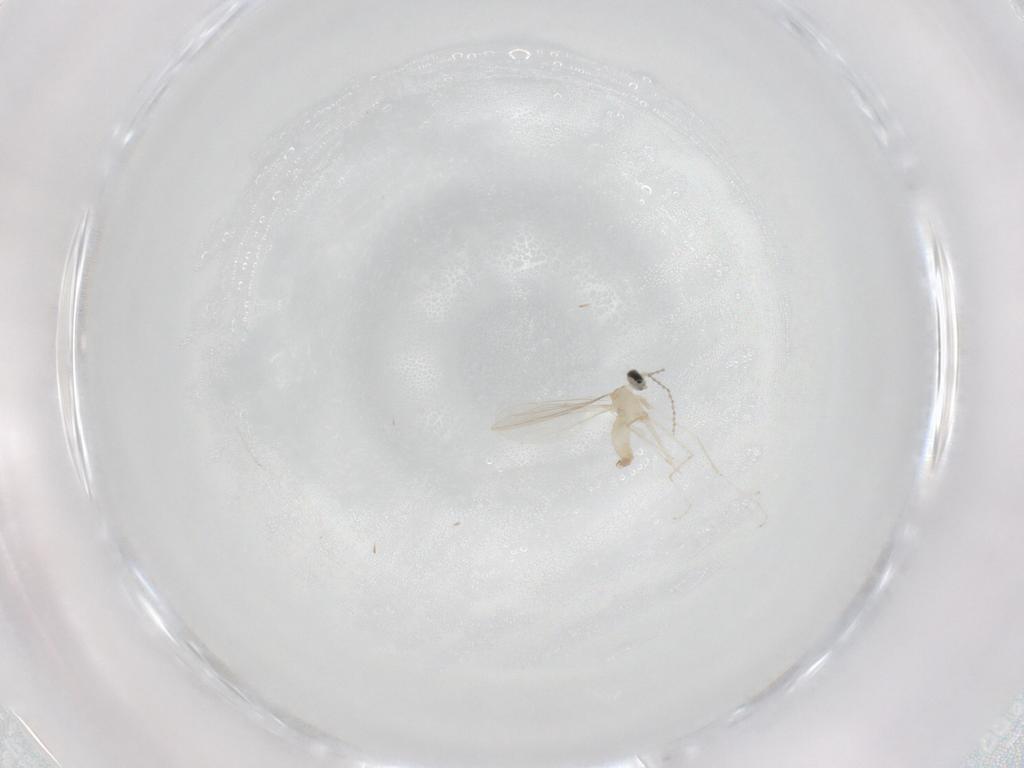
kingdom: Animalia
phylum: Arthropoda
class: Insecta
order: Diptera
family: Cecidomyiidae
